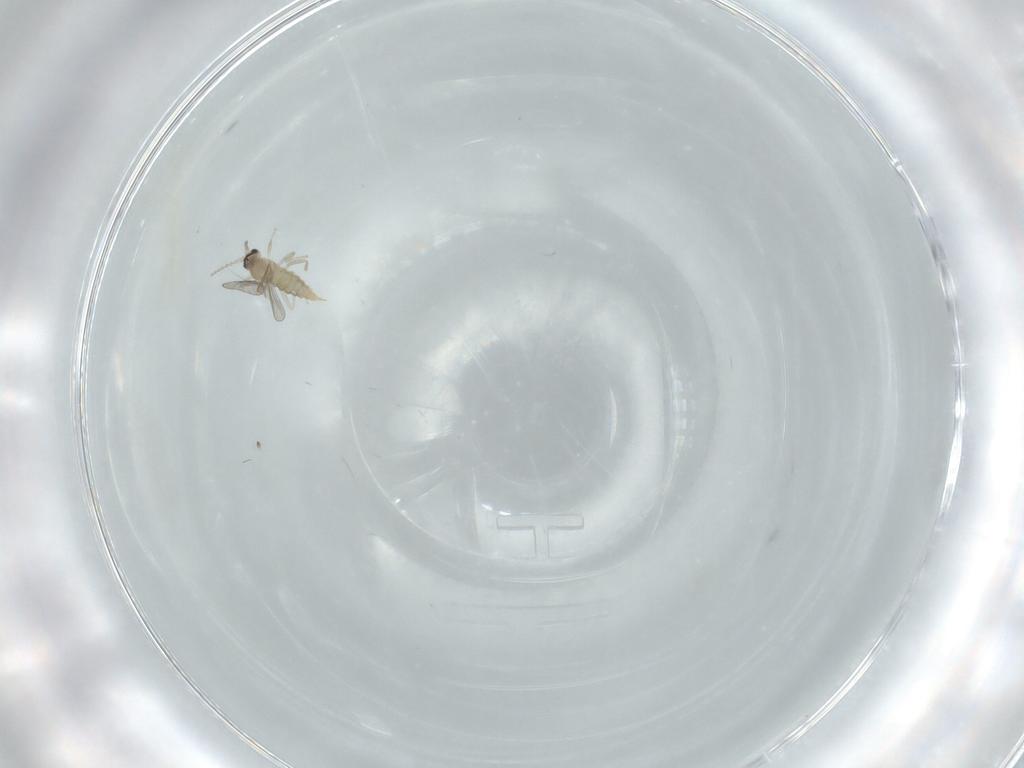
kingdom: Animalia
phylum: Arthropoda
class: Insecta
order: Diptera
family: Cecidomyiidae
